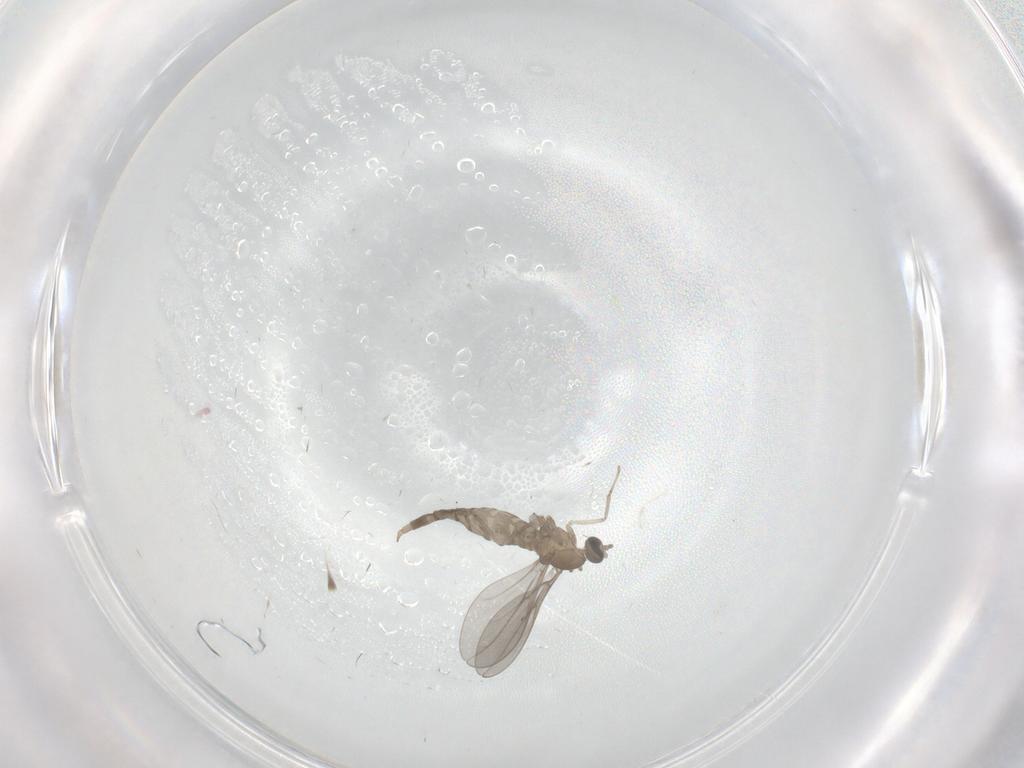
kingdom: Animalia
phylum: Arthropoda
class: Insecta
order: Diptera
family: Cecidomyiidae
